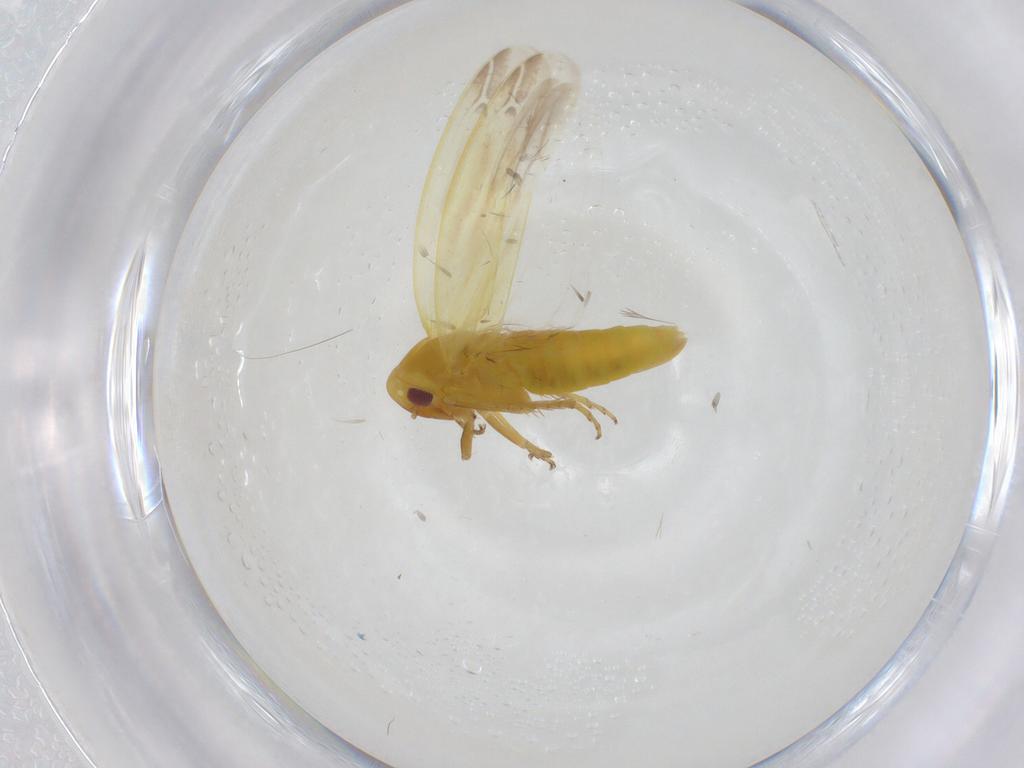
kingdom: Animalia
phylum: Arthropoda
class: Insecta
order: Hemiptera
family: Cicadellidae
